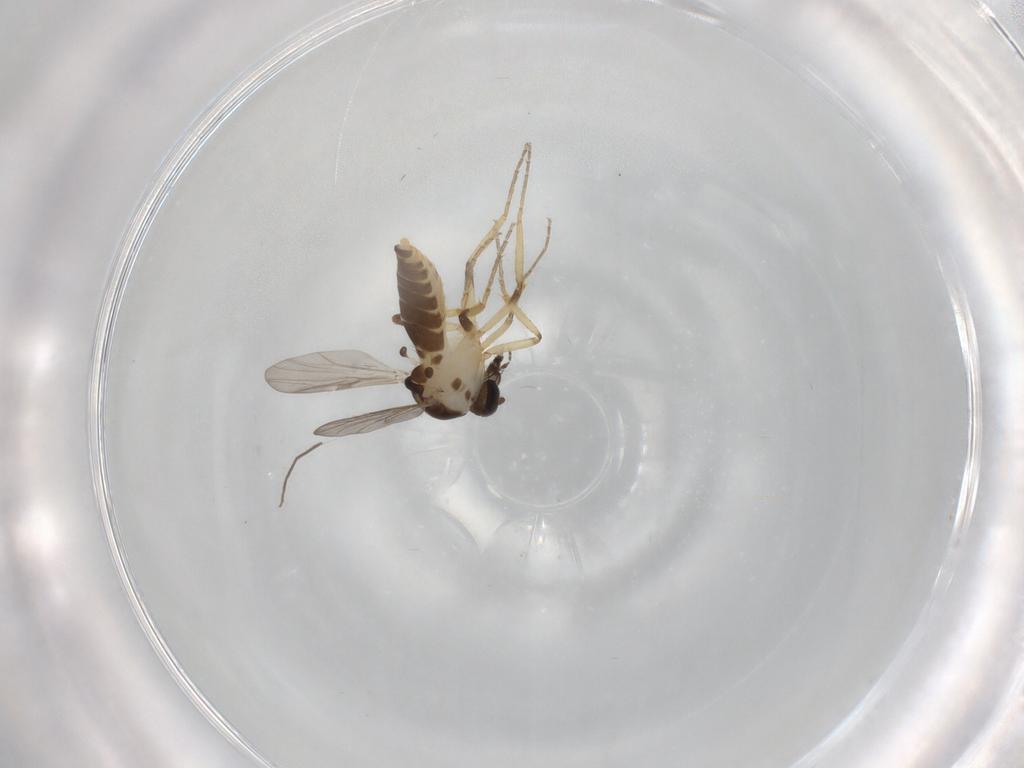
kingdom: Animalia
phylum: Arthropoda
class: Insecta
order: Diptera
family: Ceratopogonidae
